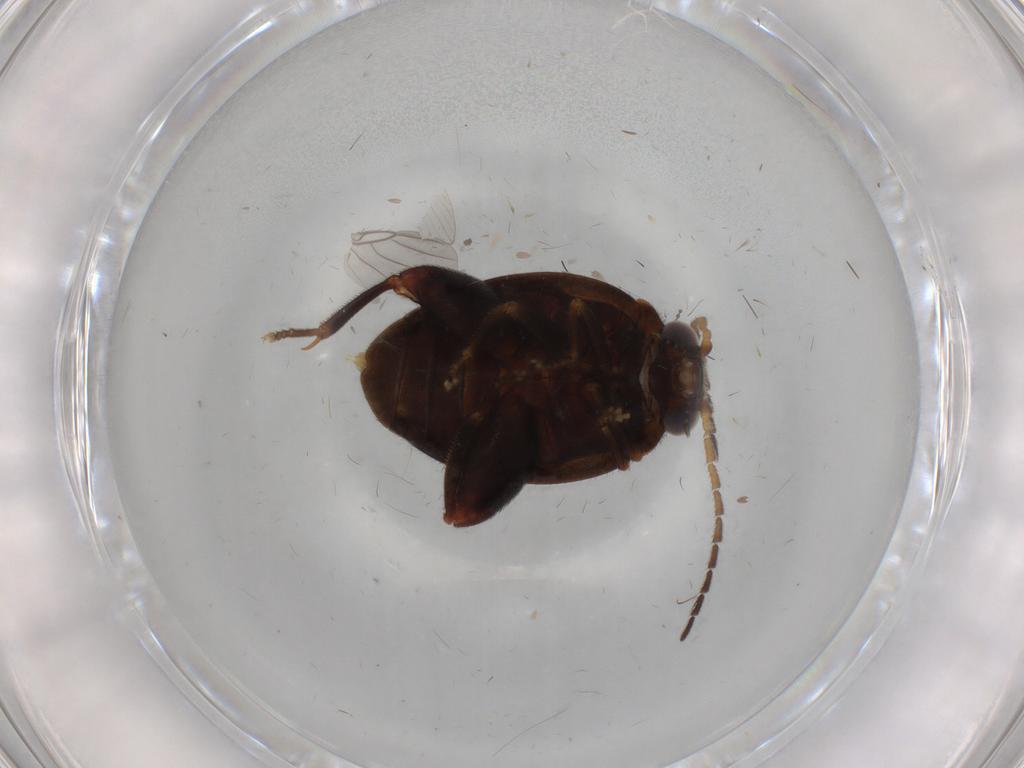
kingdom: Animalia
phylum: Arthropoda
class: Insecta
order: Coleoptera
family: Scirtidae
